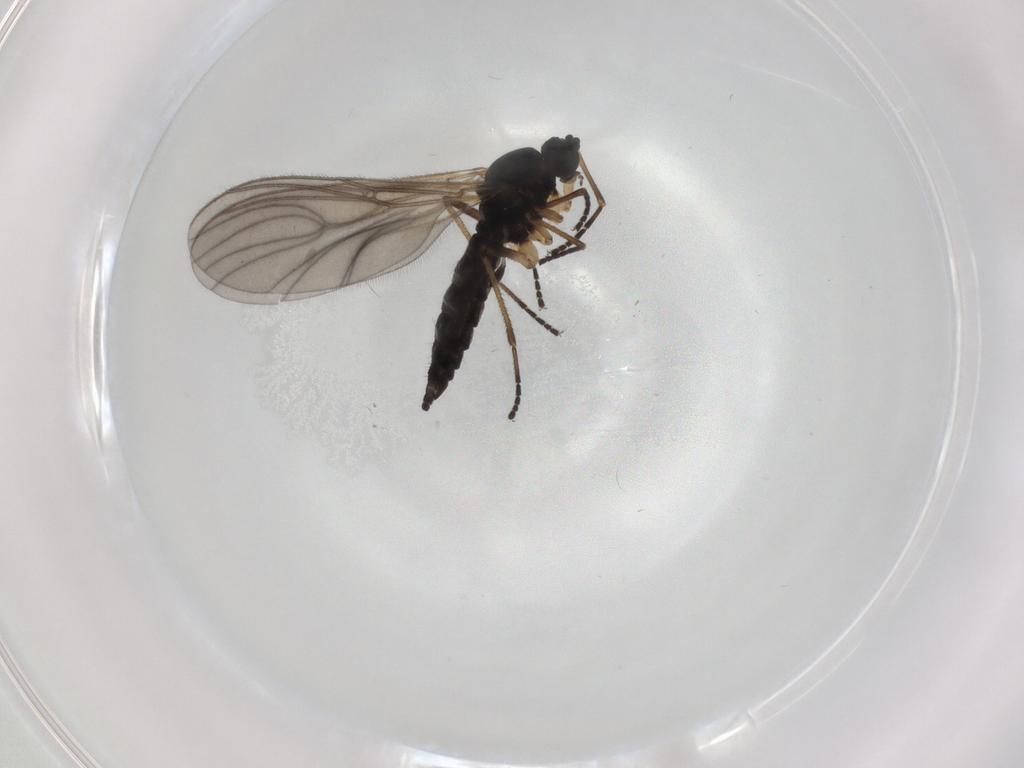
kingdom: Animalia
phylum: Arthropoda
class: Insecta
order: Diptera
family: Sciaridae
